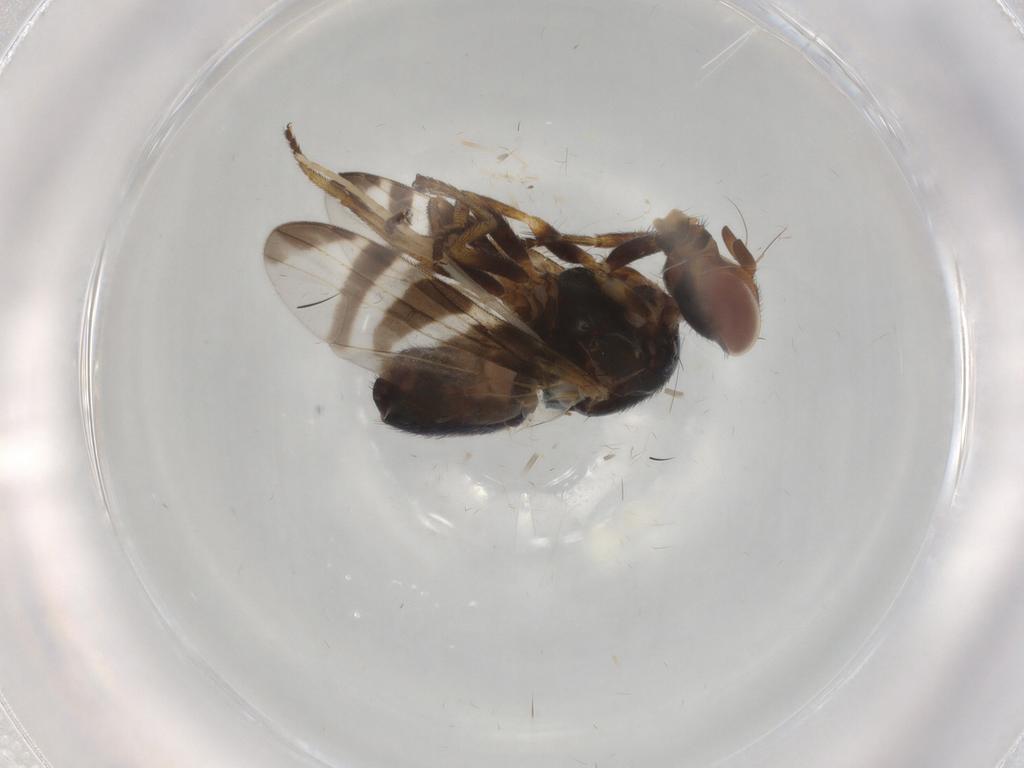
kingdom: Animalia
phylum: Arthropoda
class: Insecta
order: Diptera
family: Platystomatidae
